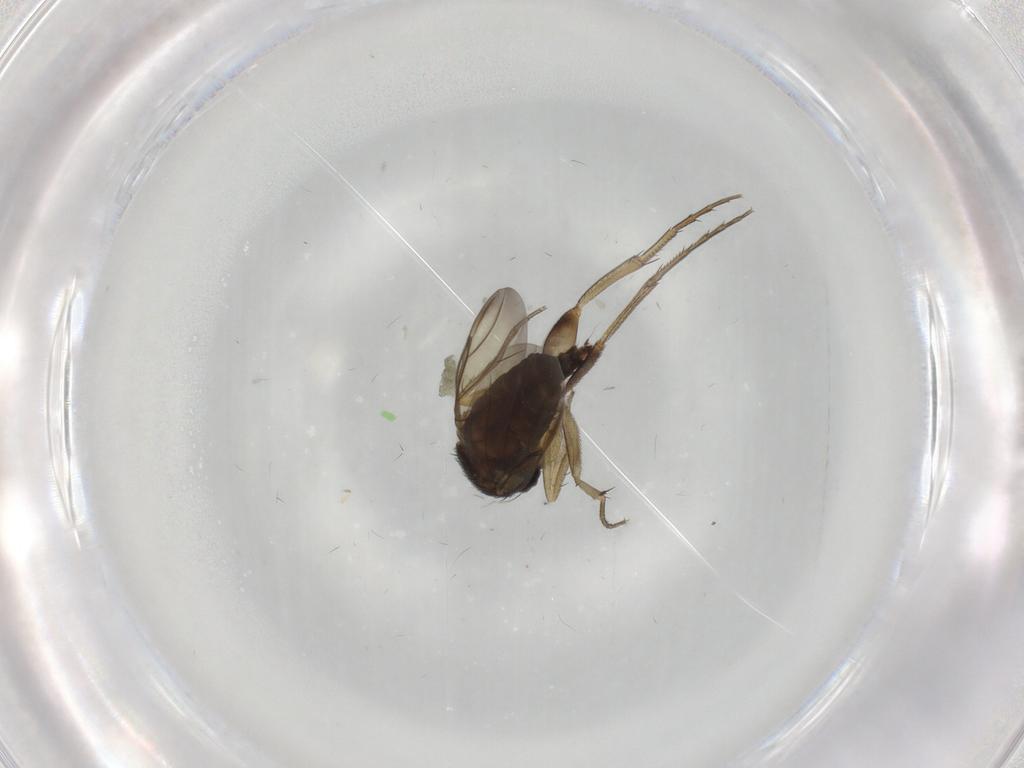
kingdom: Animalia
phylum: Arthropoda
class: Insecta
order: Diptera
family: Phoridae
